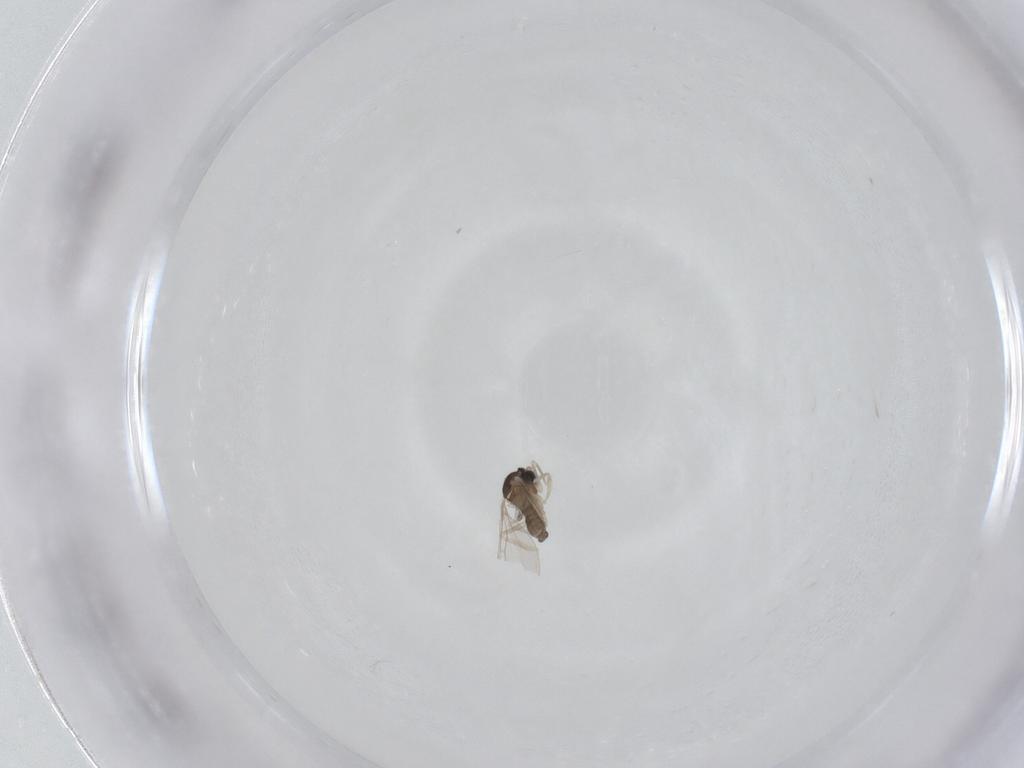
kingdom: Animalia
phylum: Arthropoda
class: Insecta
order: Diptera
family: Cecidomyiidae
